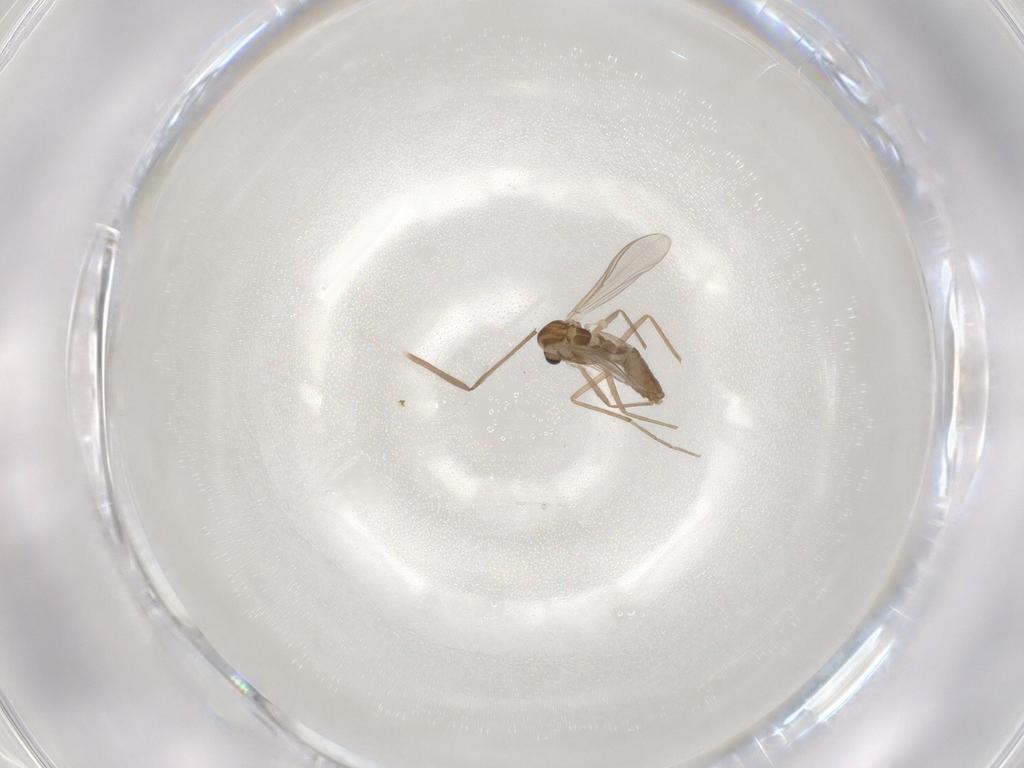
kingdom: Animalia
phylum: Arthropoda
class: Insecta
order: Diptera
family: Chironomidae
